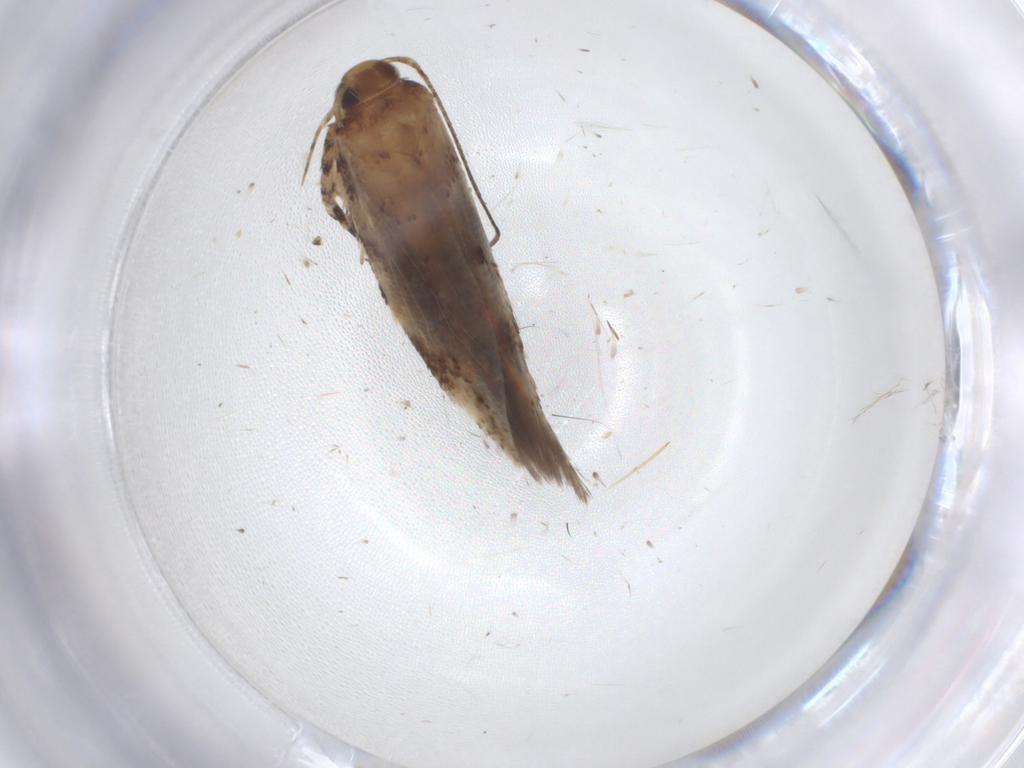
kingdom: Animalia
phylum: Arthropoda
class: Insecta
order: Lepidoptera
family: Gelechiidae
